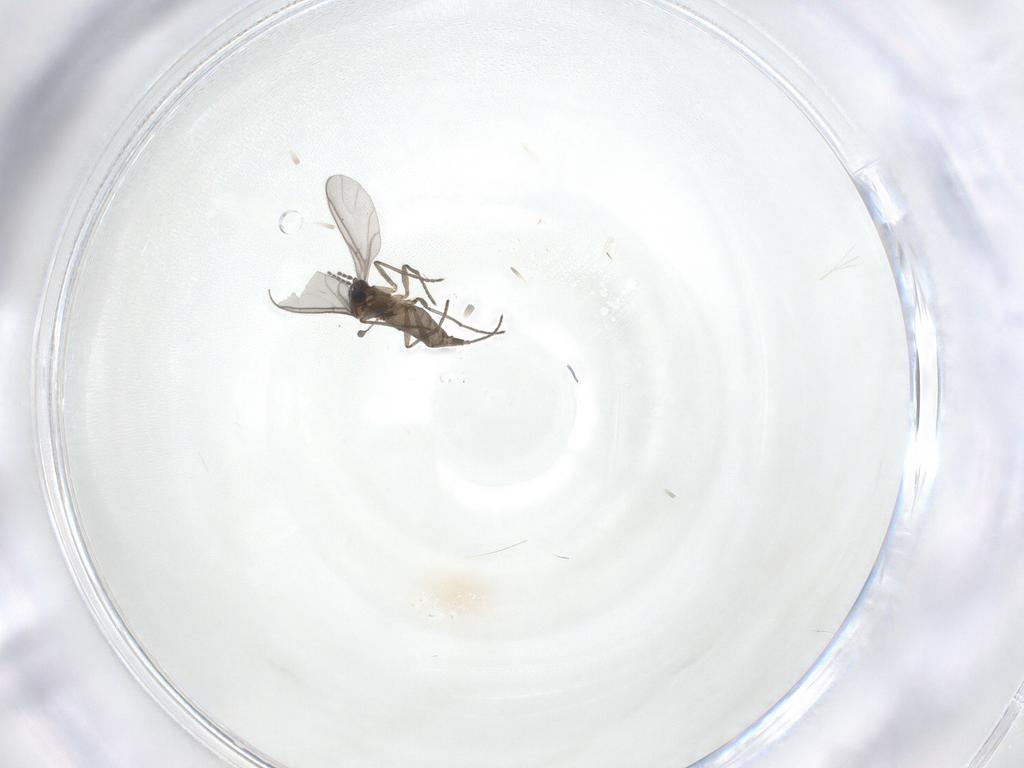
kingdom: Animalia
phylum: Arthropoda
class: Insecta
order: Diptera
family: Sciaridae
